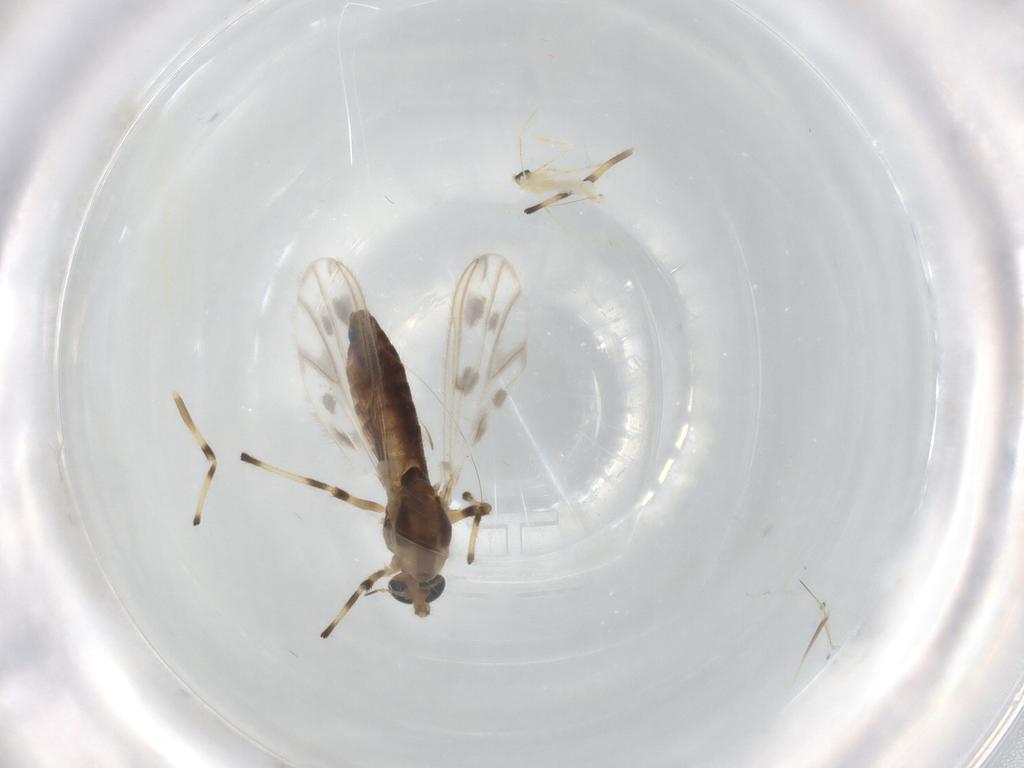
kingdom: Animalia
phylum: Arthropoda
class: Insecta
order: Diptera
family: Chironomidae
